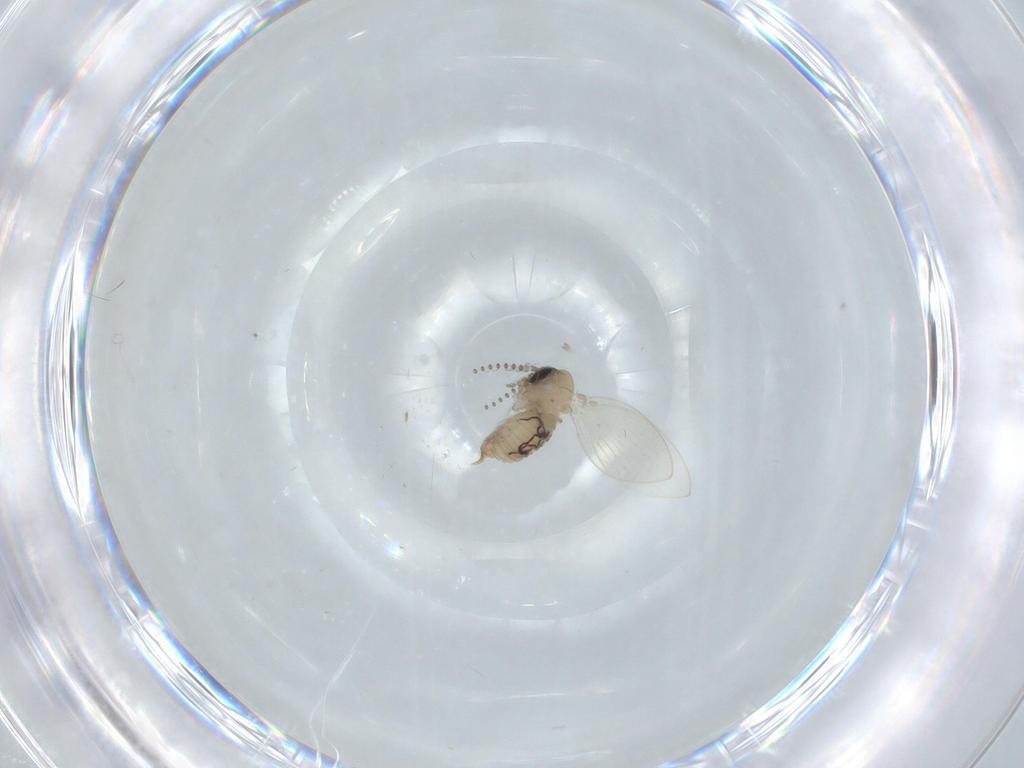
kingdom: Animalia
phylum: Arthropoda
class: Insecta
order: Diptera
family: Psychodidae
